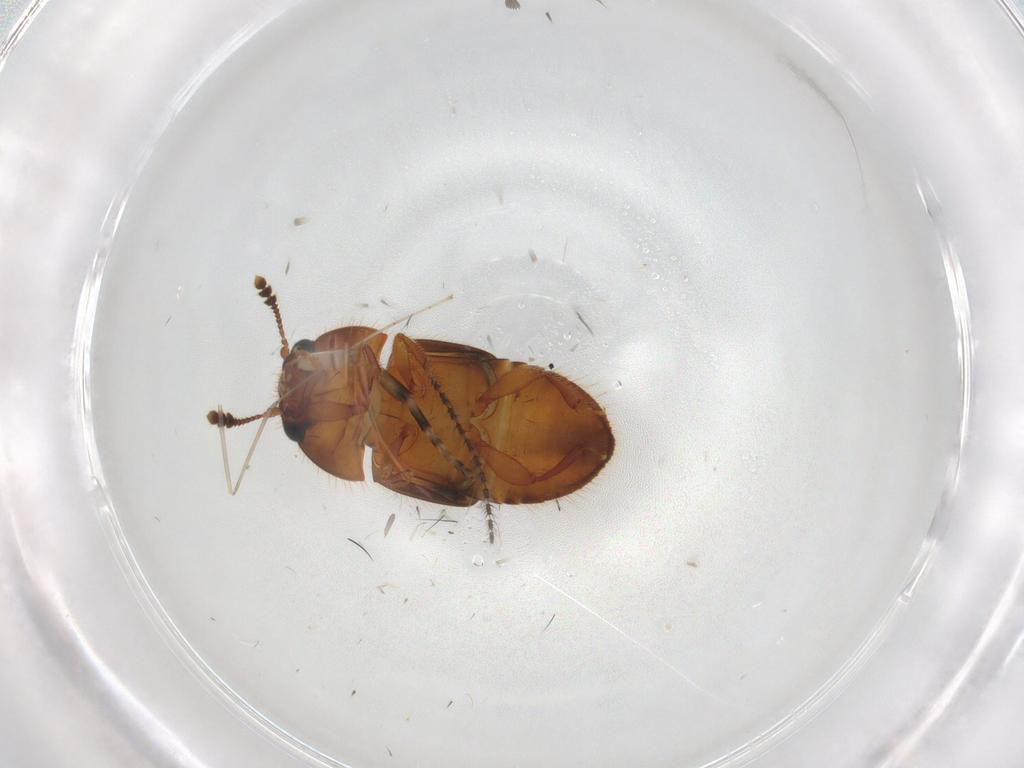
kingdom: Animalia
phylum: Arthropoda
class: Insecta
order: Coleoptera
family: Nitidulidae
